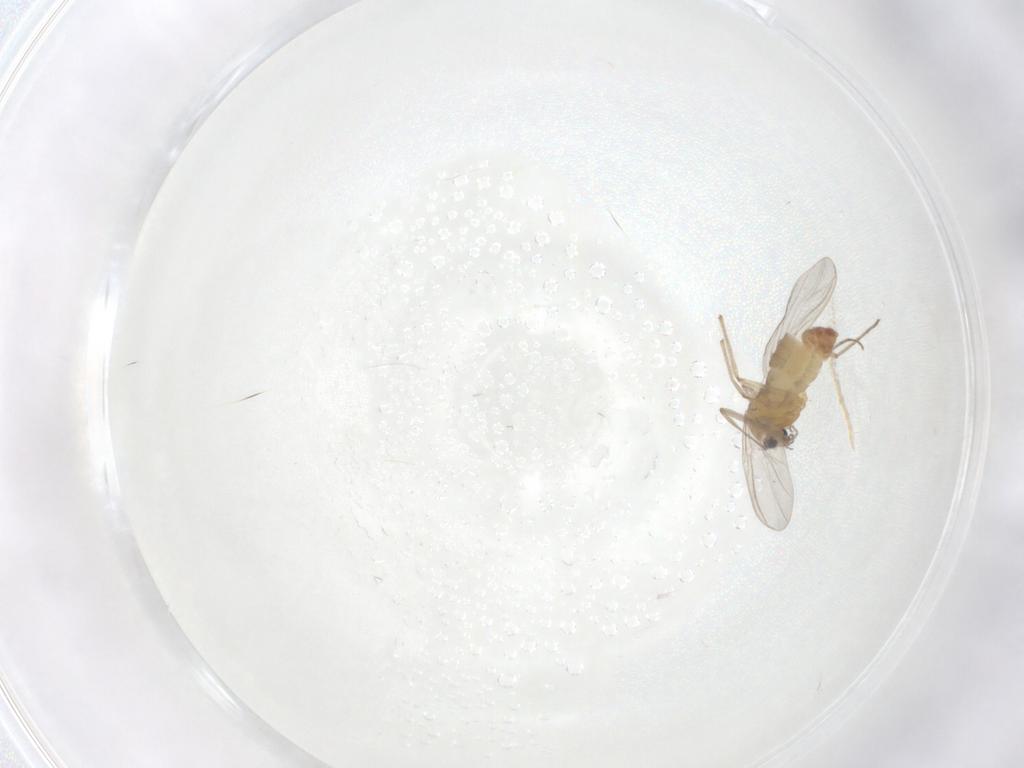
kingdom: Animalia
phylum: Arthropoda
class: Insecta
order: Diptera
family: Chironomidae
